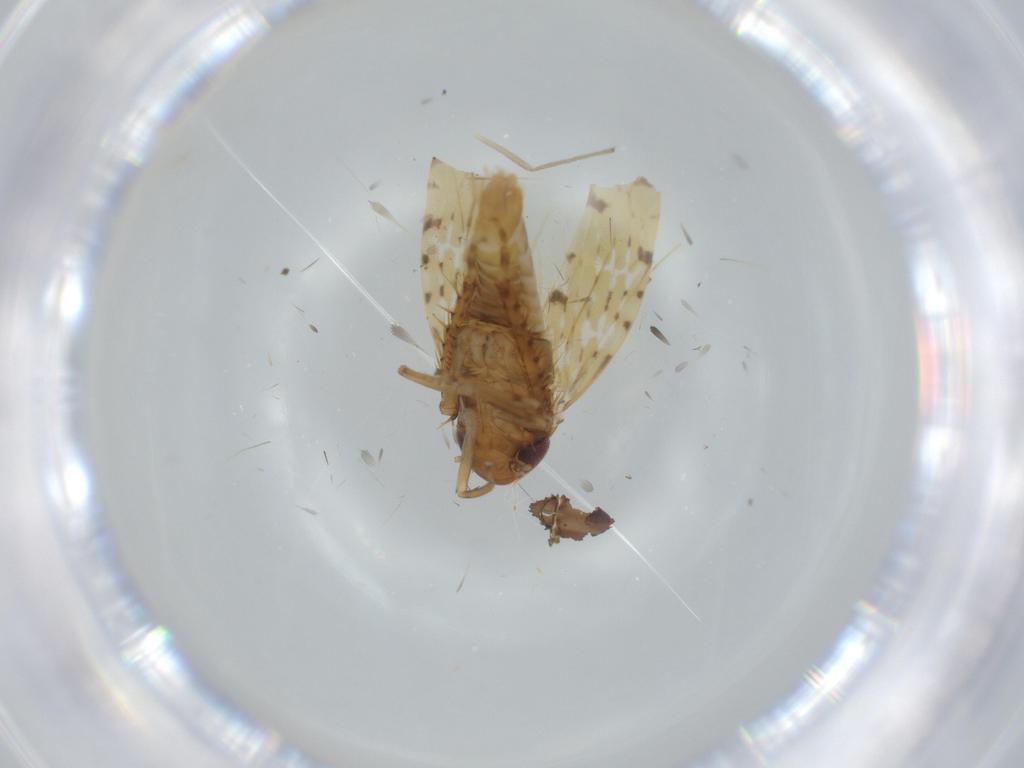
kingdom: Animalia
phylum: Arthropoda
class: Insecta
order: Hemiptera
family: Cicadellidae
